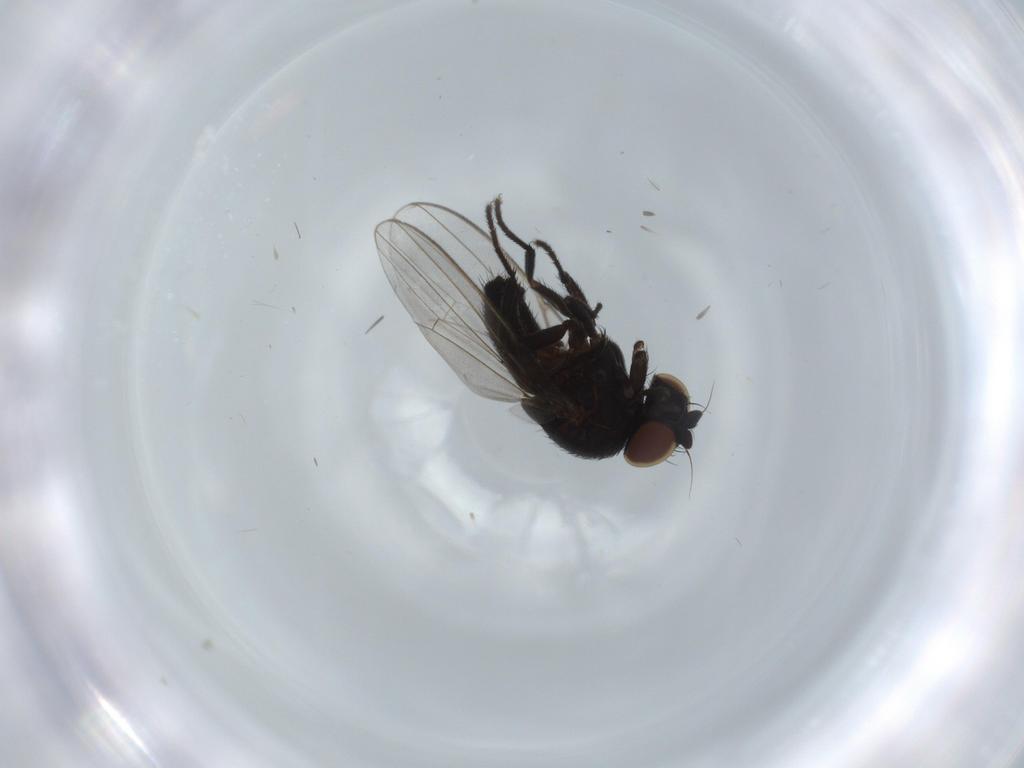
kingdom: Animalia
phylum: Arthropoda
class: Insecta
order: Diptera
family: Milichiidae
